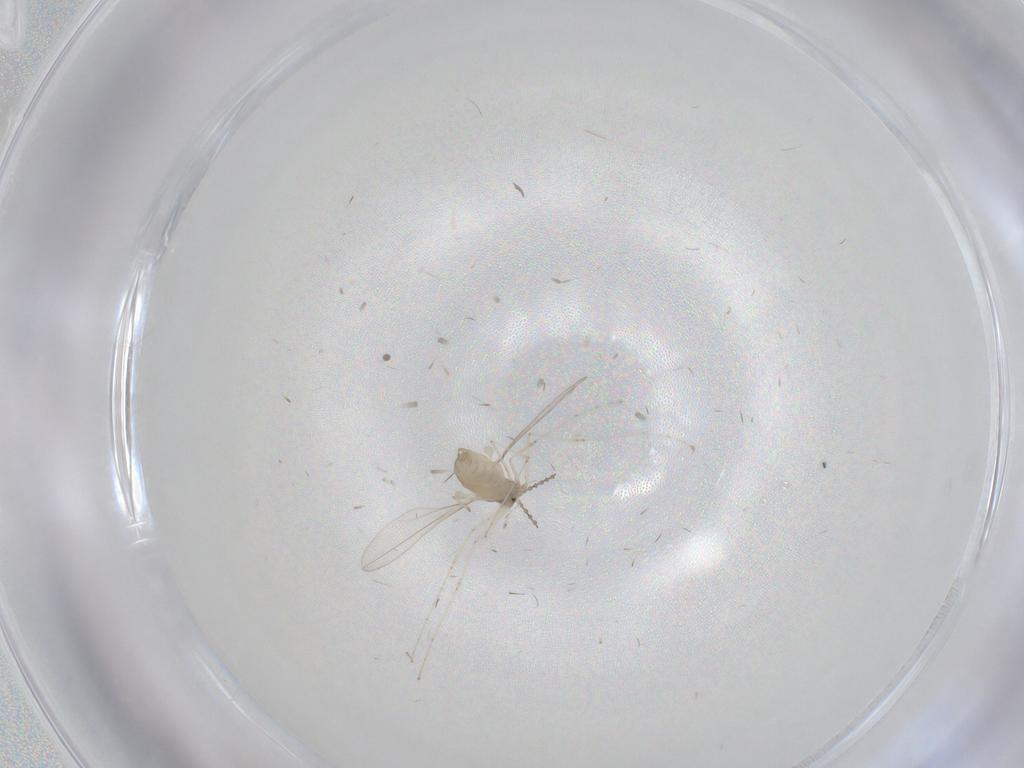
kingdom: Animalia
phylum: Arthropoda
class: Insecta
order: Diptera
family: Cecidomyiidae
